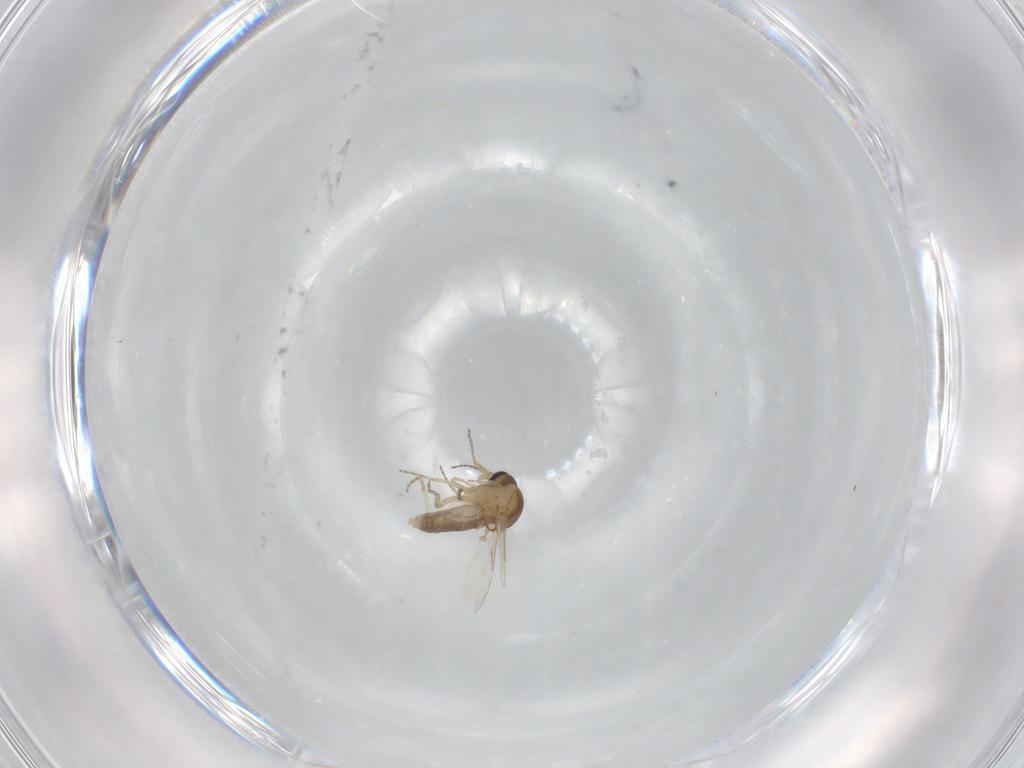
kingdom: Animalia
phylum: Arthropoda
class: Insecta
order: Diptera
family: Ceratopogonidae
